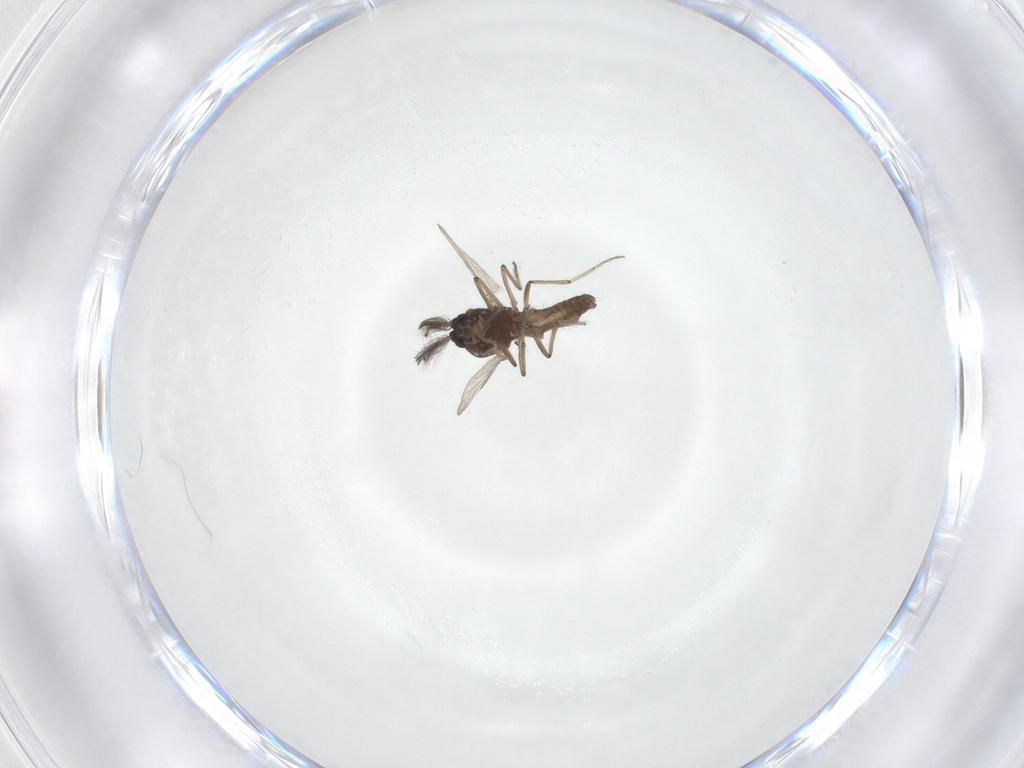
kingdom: Animalia
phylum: Arthropoda
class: Insecta
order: Diptera
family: Ceratopogonidae
